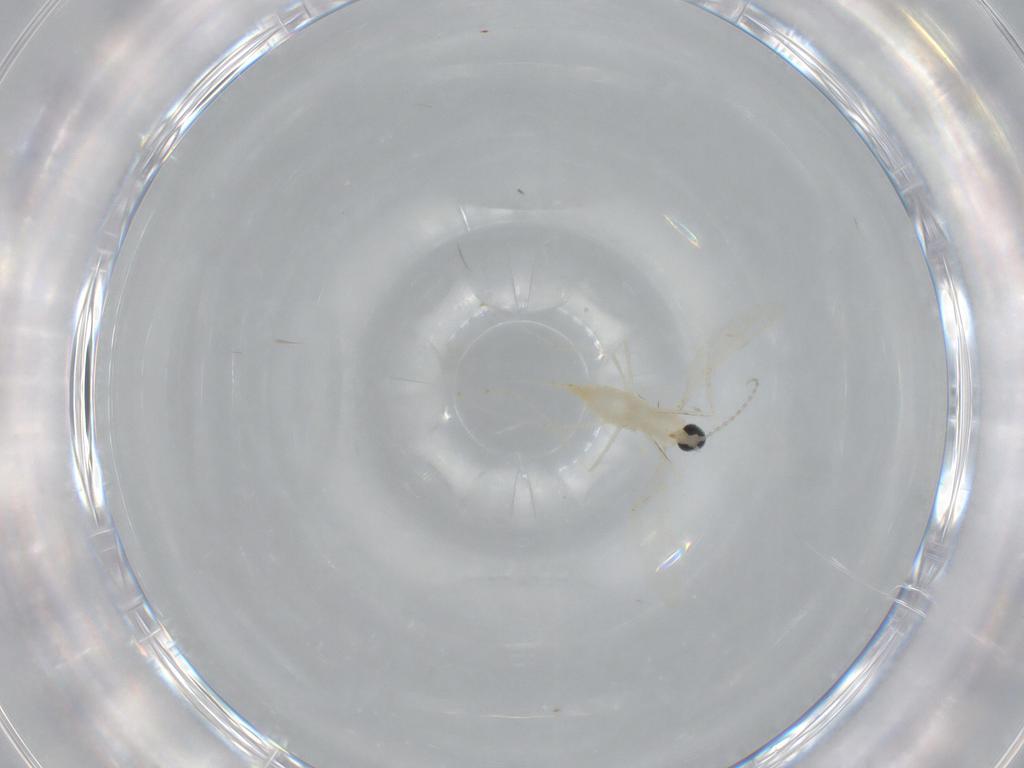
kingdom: Animalia
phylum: Arthropoda
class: Insecta
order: Diptera
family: Cecidomyiidae
